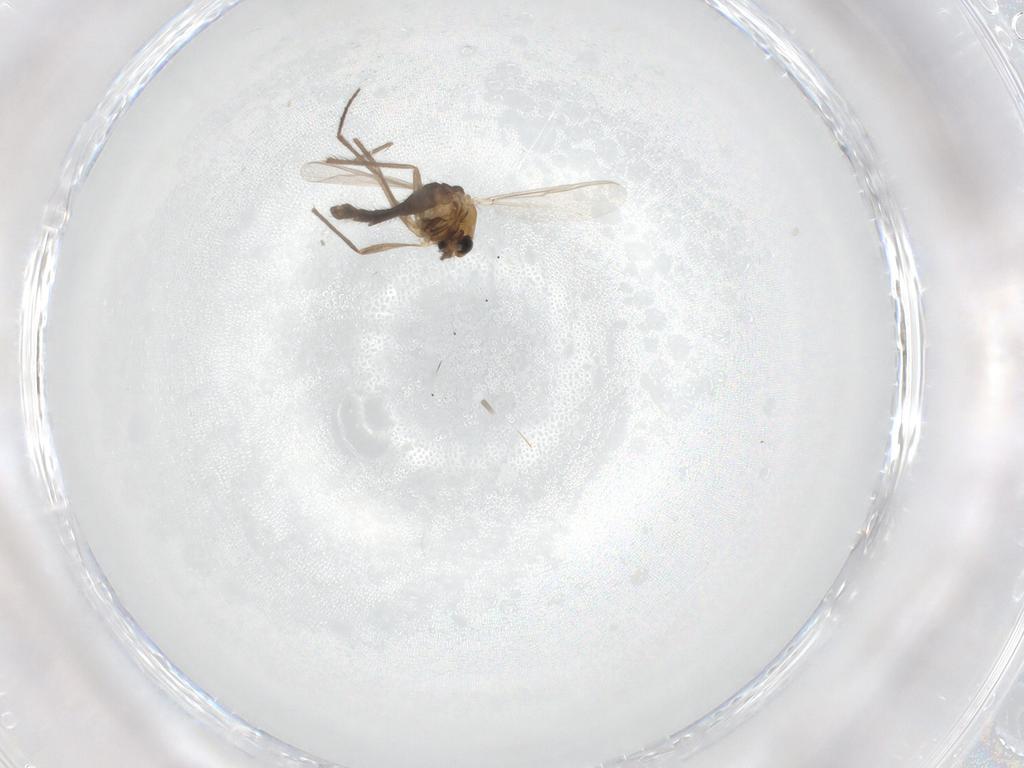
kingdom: Animalia
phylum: Arthropoda
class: Insecta
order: Diptera
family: Chironomidae
